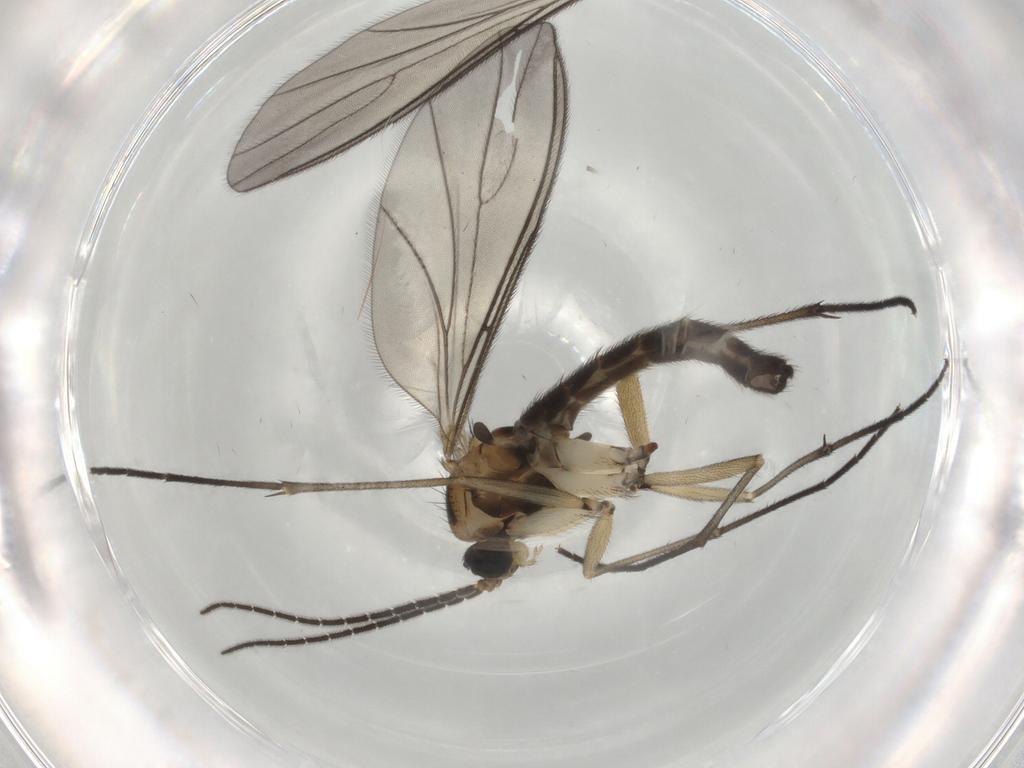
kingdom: Animalia
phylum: Arthropoda
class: Insecta
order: Diptera
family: Sciaridae
